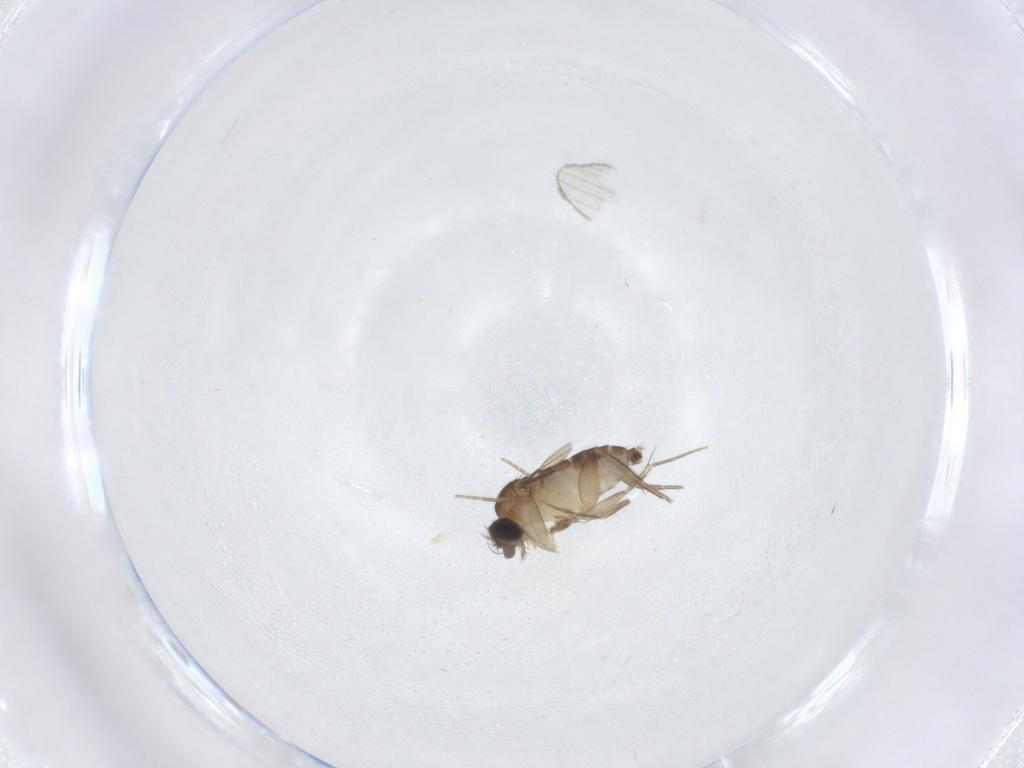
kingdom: Animalia
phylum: Arthropoda
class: Insecta
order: Diptera
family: Phoridae
